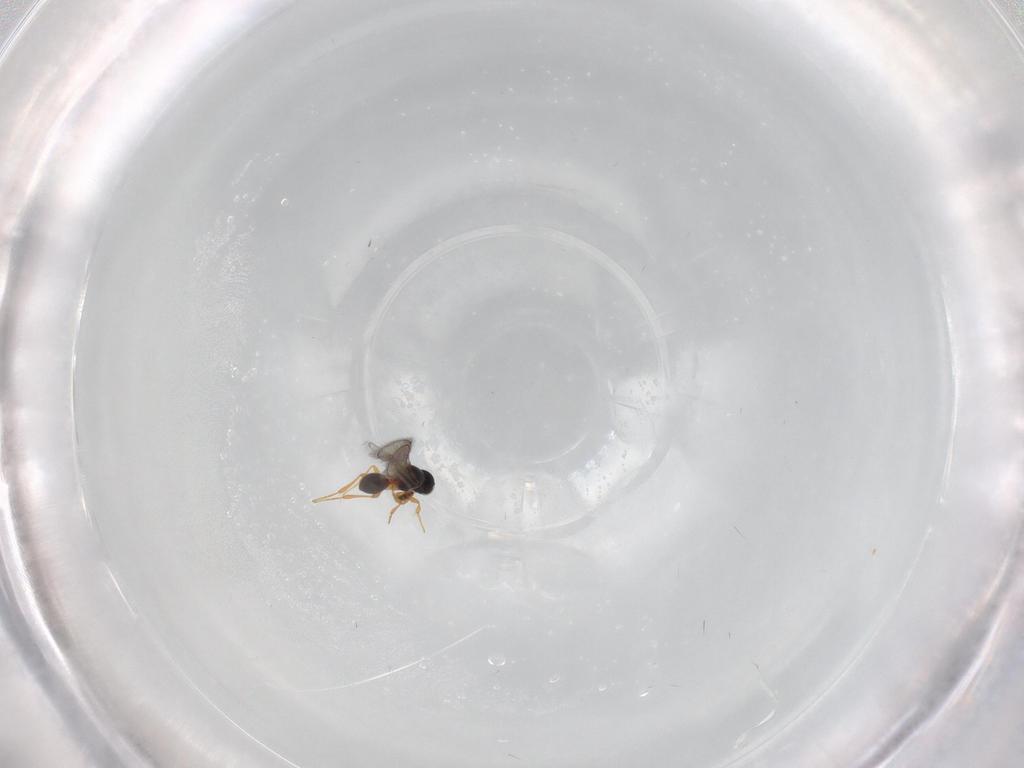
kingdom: Animalia
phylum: Arthropoda
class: Insecta
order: Hymenoptera
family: Platygastridae
